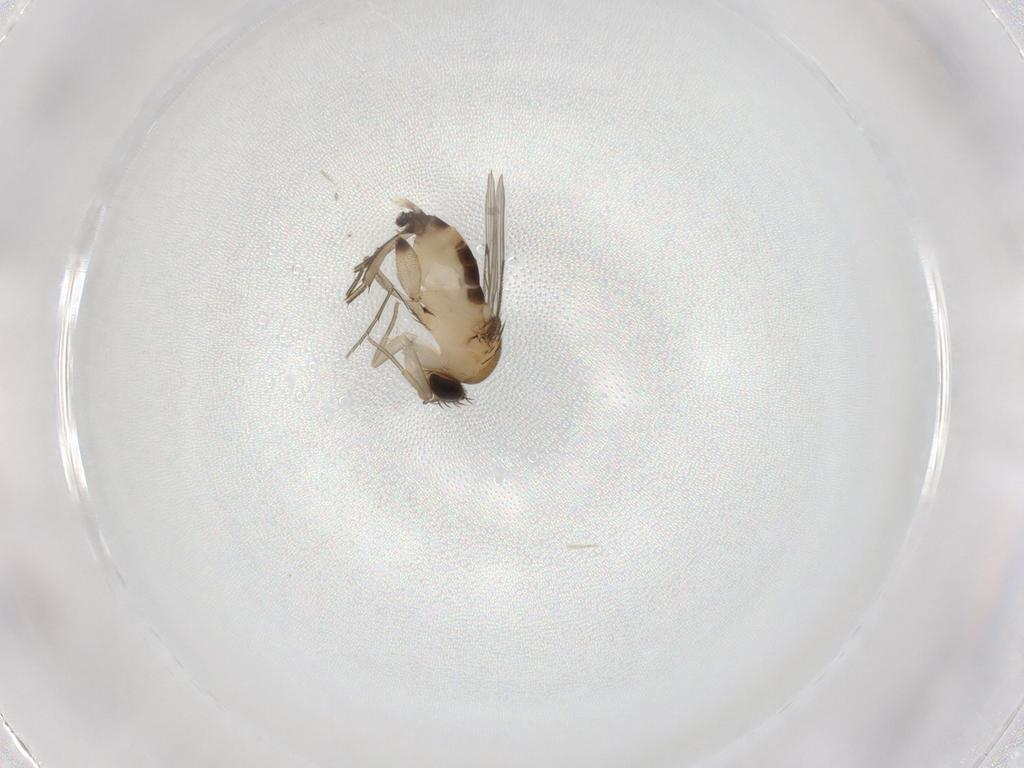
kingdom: Animalia
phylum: Arthropoda
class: Insecta
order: Diptera
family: Phoridae
